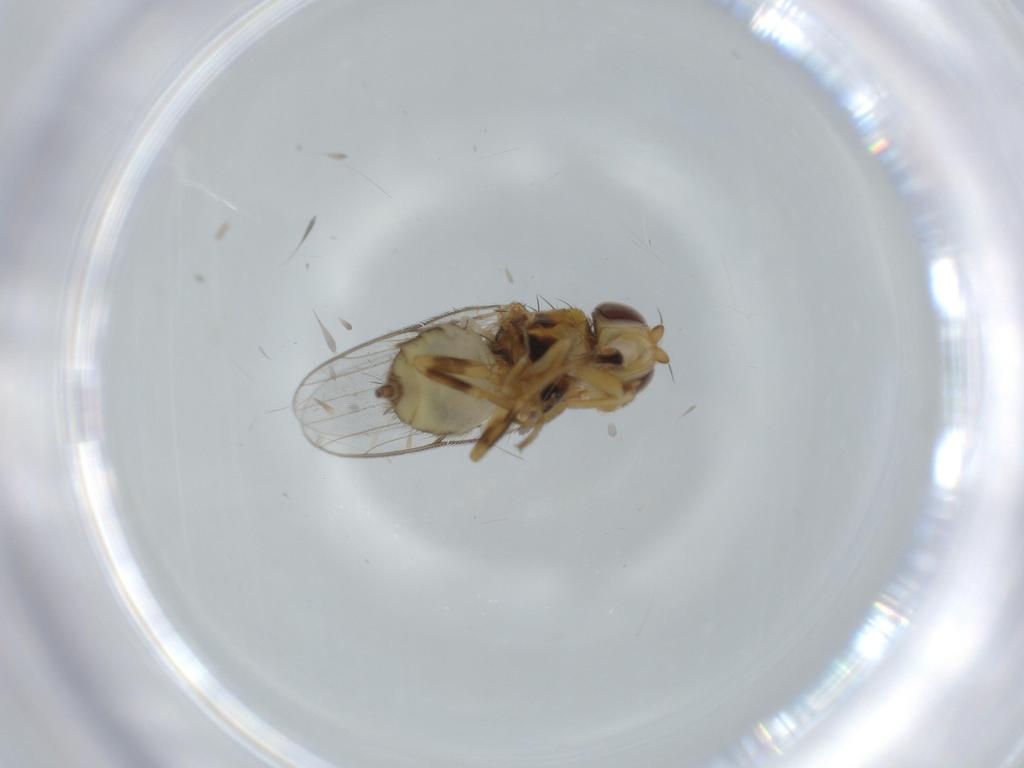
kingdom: Animalia
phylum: Arthropoda
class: Insecta
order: Diptera
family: Chloropidae
